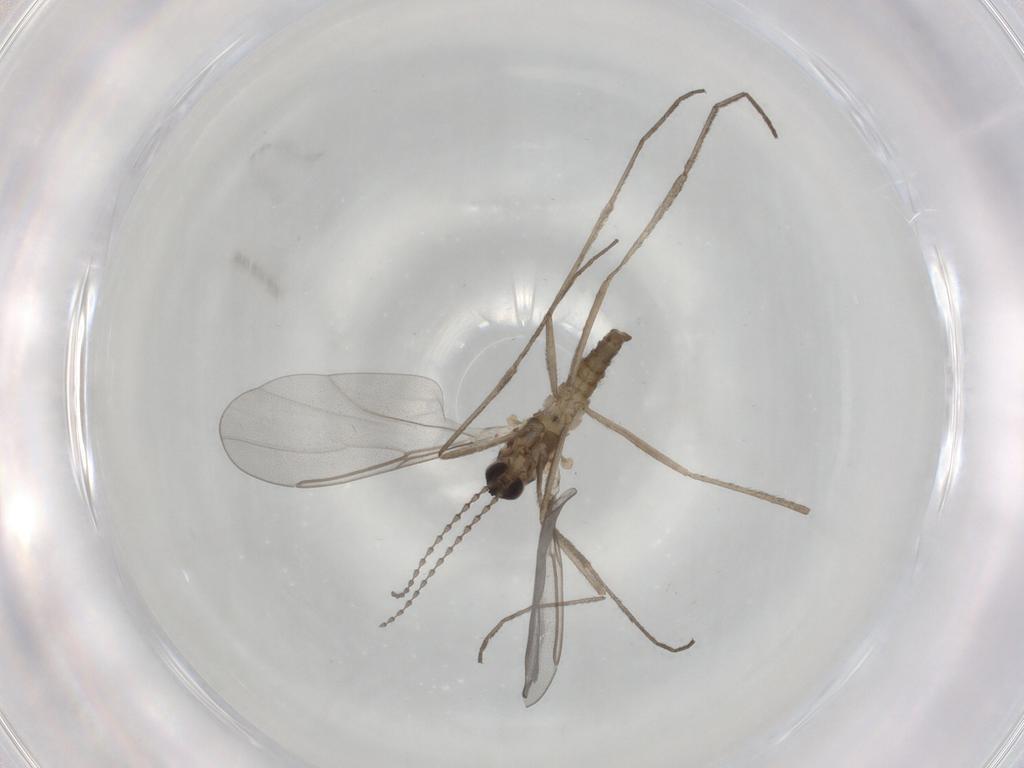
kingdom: Animalia
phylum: Arthropoda
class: Insecta
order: Diptera
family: Cecidomyiidae
